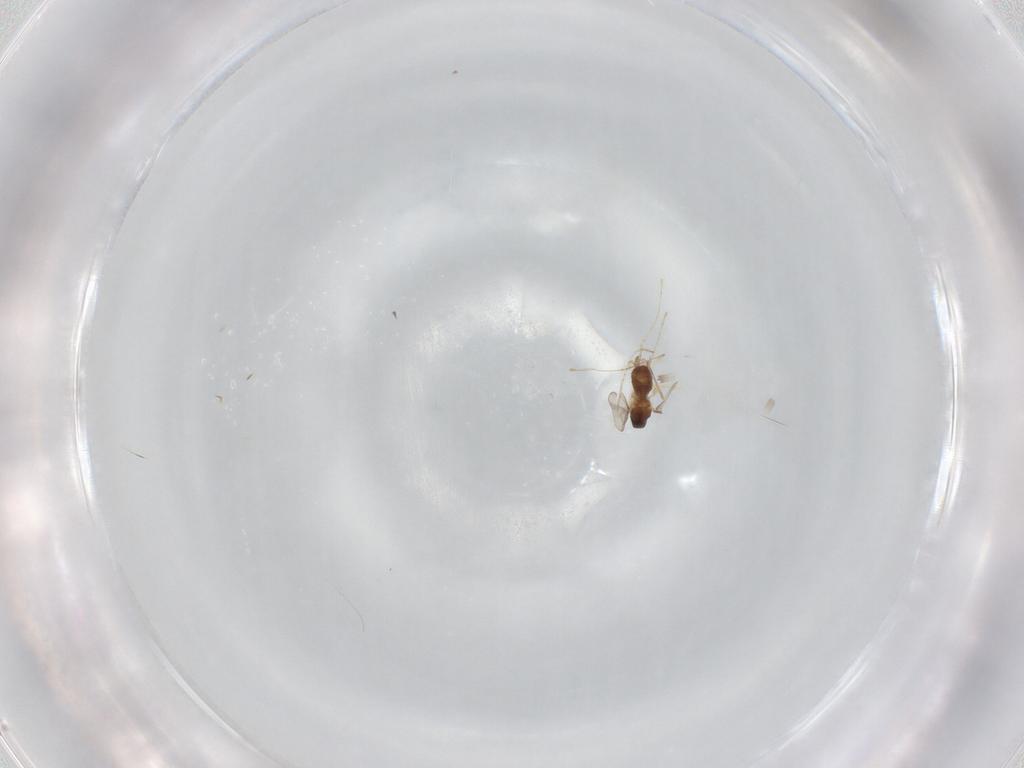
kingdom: Animalia
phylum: Arthropoda
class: Insecta
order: Diptera
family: Cecidomyiidae
